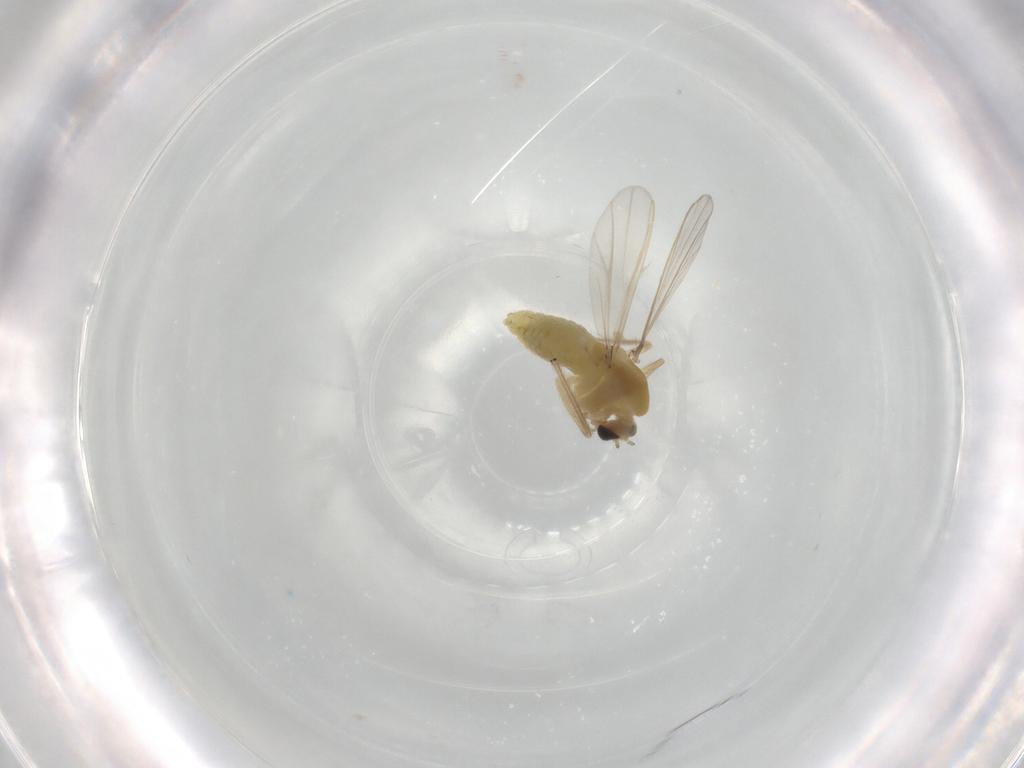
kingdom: Animalia
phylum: Arthropoda
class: Insecta
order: Diptera
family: Chironomidae
